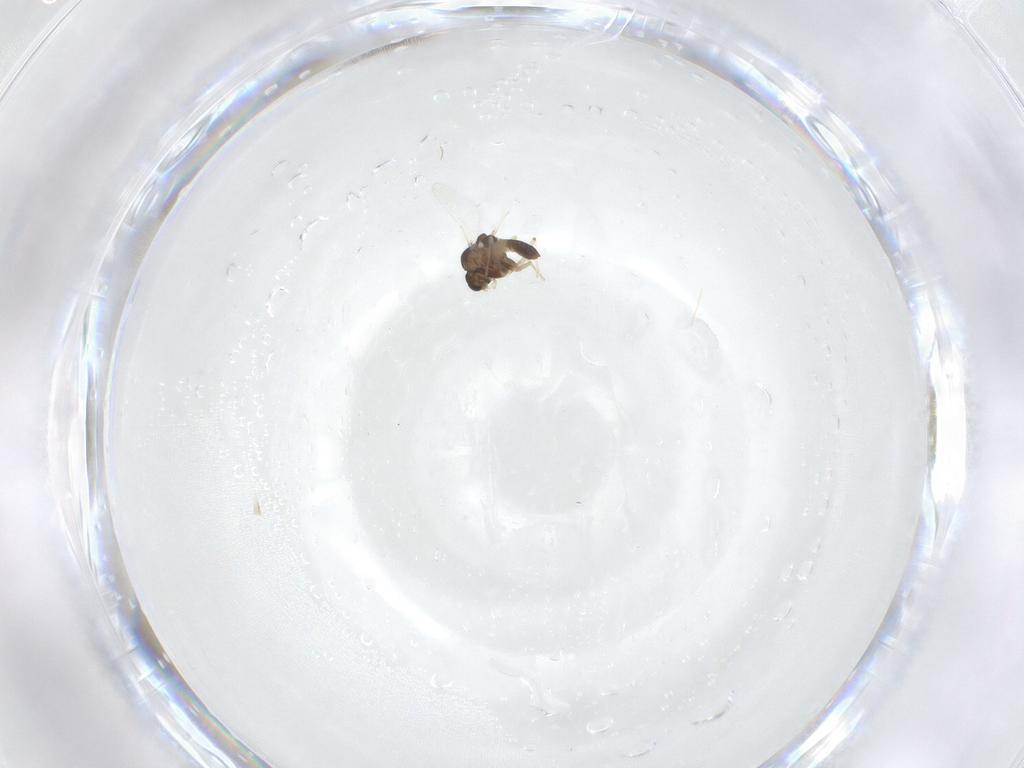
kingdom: Animalia
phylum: Arthropoda
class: Insecta
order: Diptera
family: Chironomidae
